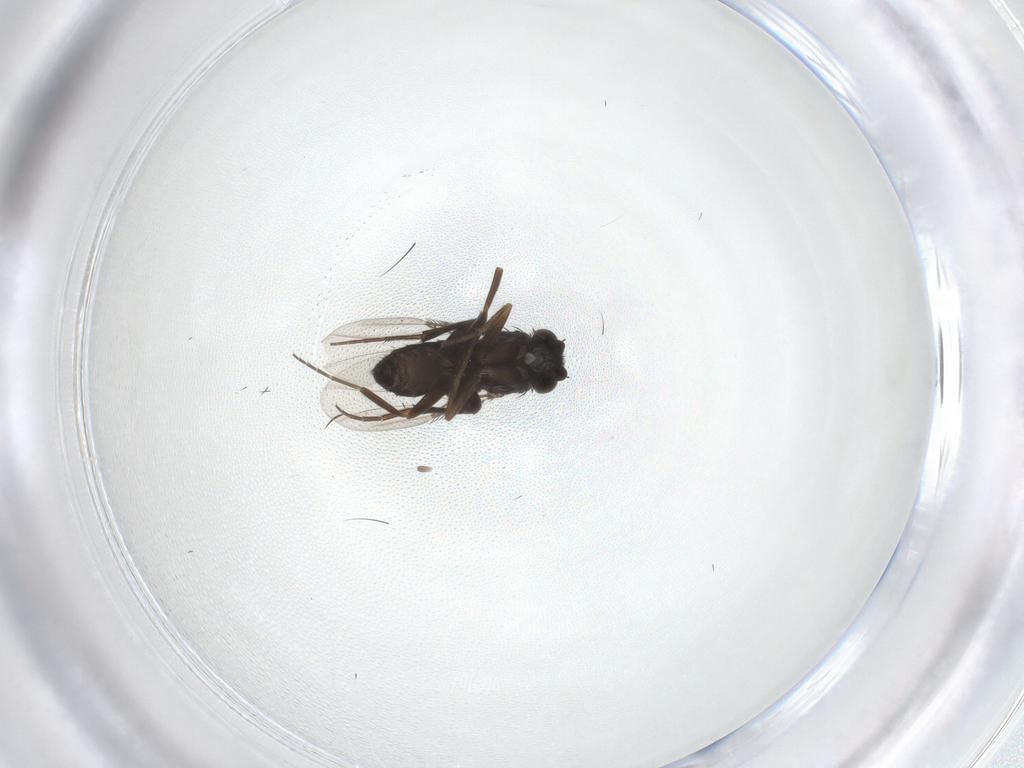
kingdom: Animalia
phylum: Arthropoda
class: Insecta
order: Diptera
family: Dolichopodidae
